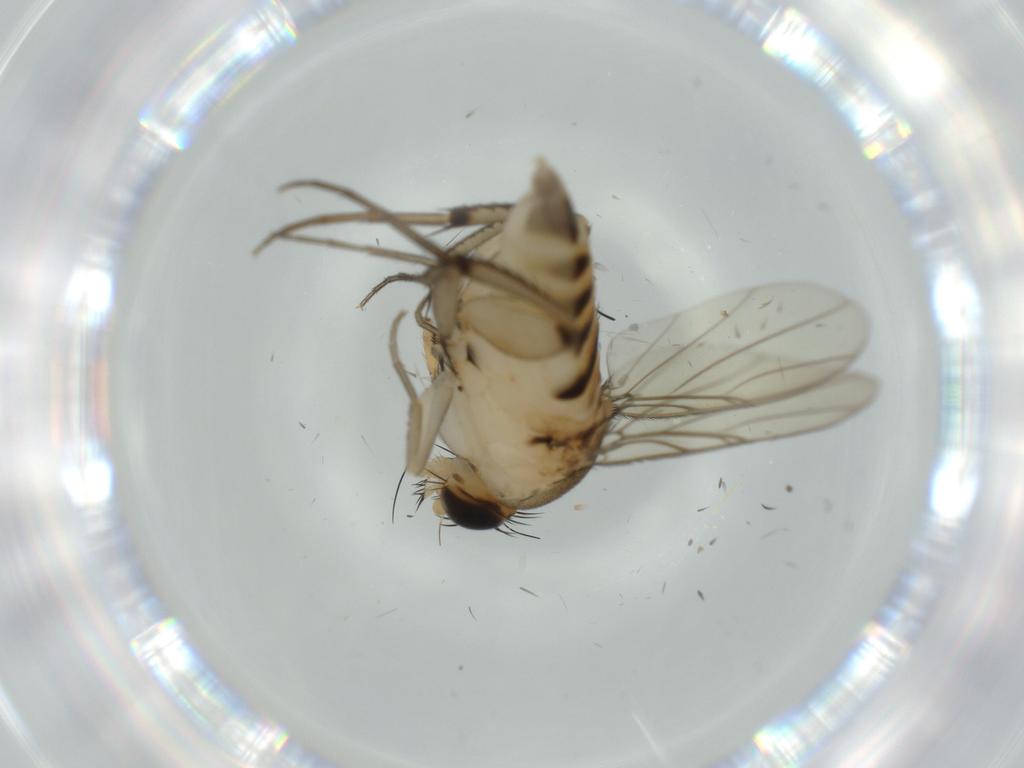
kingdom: Animalia
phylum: Arthropoda
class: Insecta
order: Diptera
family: Phoridae
